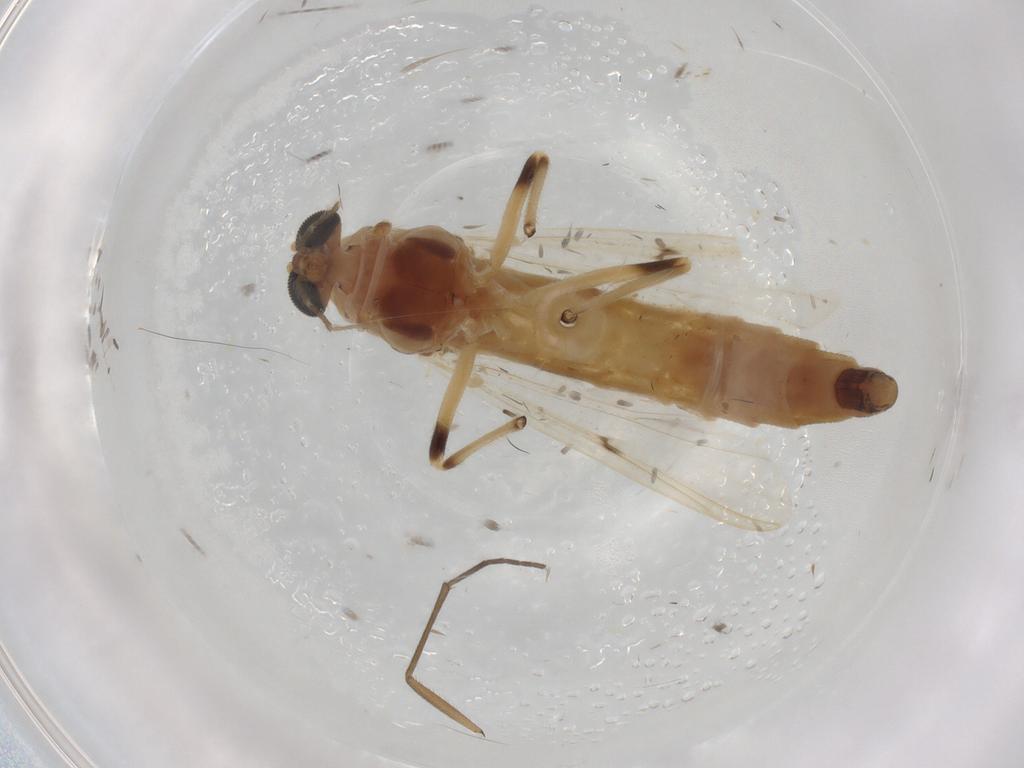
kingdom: Animalia
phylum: Arthropoda
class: Insecta
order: Diptera
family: Phoridae
